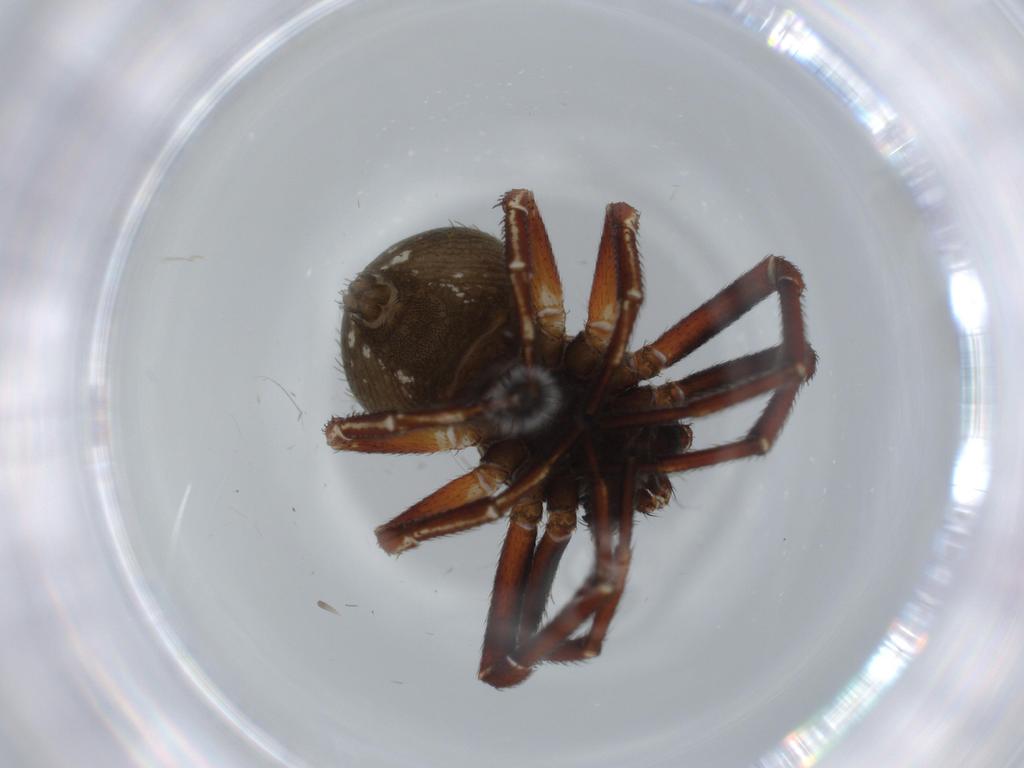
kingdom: Animalia
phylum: Arthropoda
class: Arachnida
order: Araneae
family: Thomisidae
